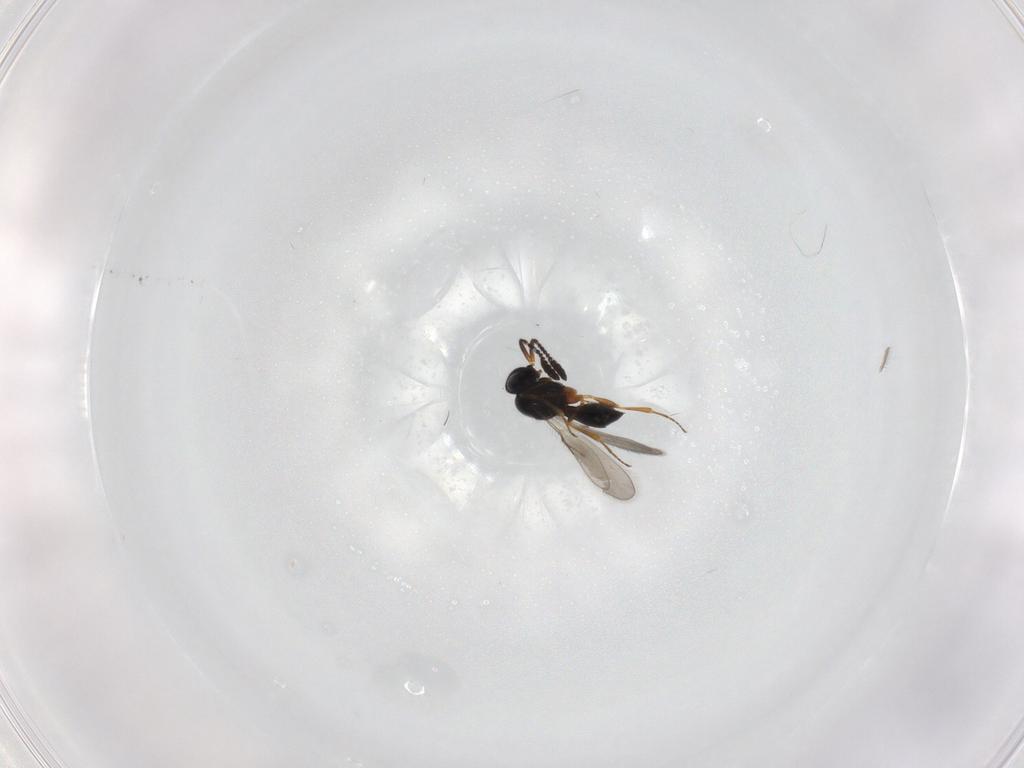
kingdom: Animalia
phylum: Arthropoda
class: Insecta
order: Hymenoptera
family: Scelionidae
